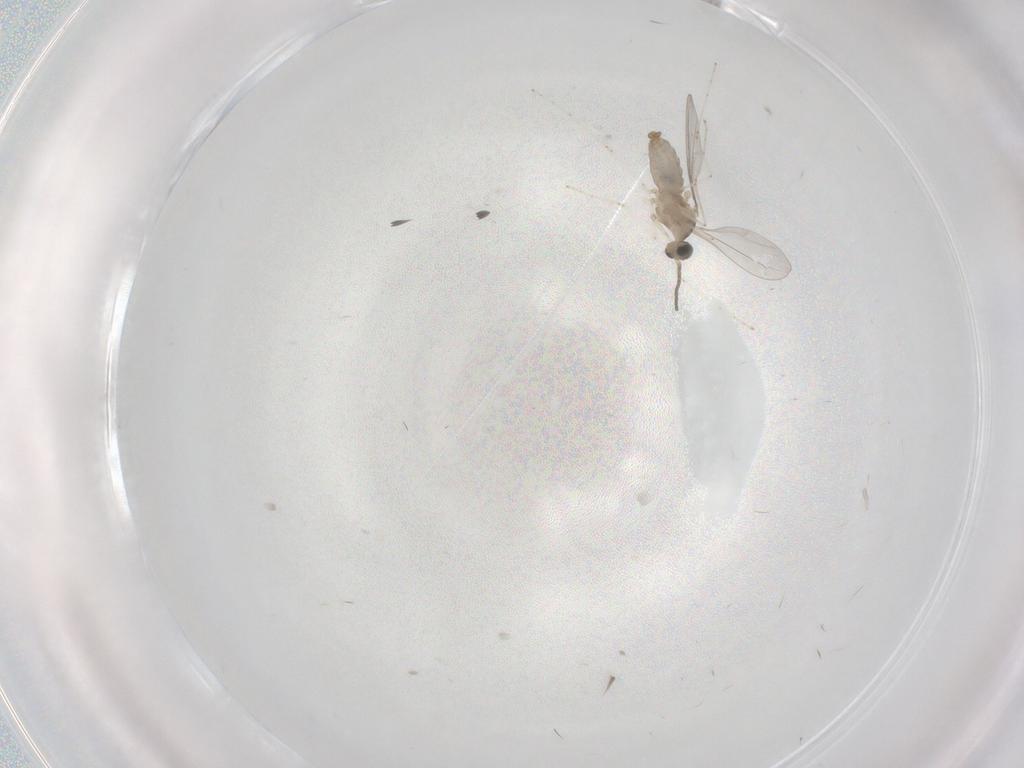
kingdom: Animalia
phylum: Arthropoda
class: Insecta
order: Diptera
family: Cecidomyiidae
